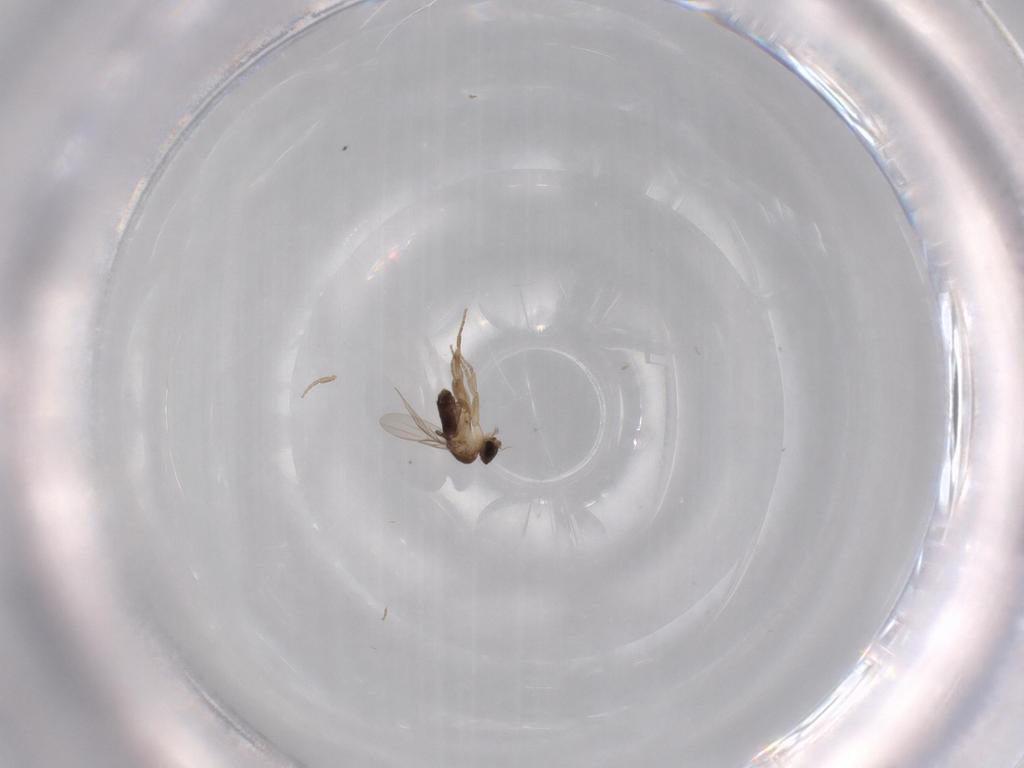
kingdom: Animalia
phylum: Arthropoda
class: Insecta
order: Diptera
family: Phoridae
